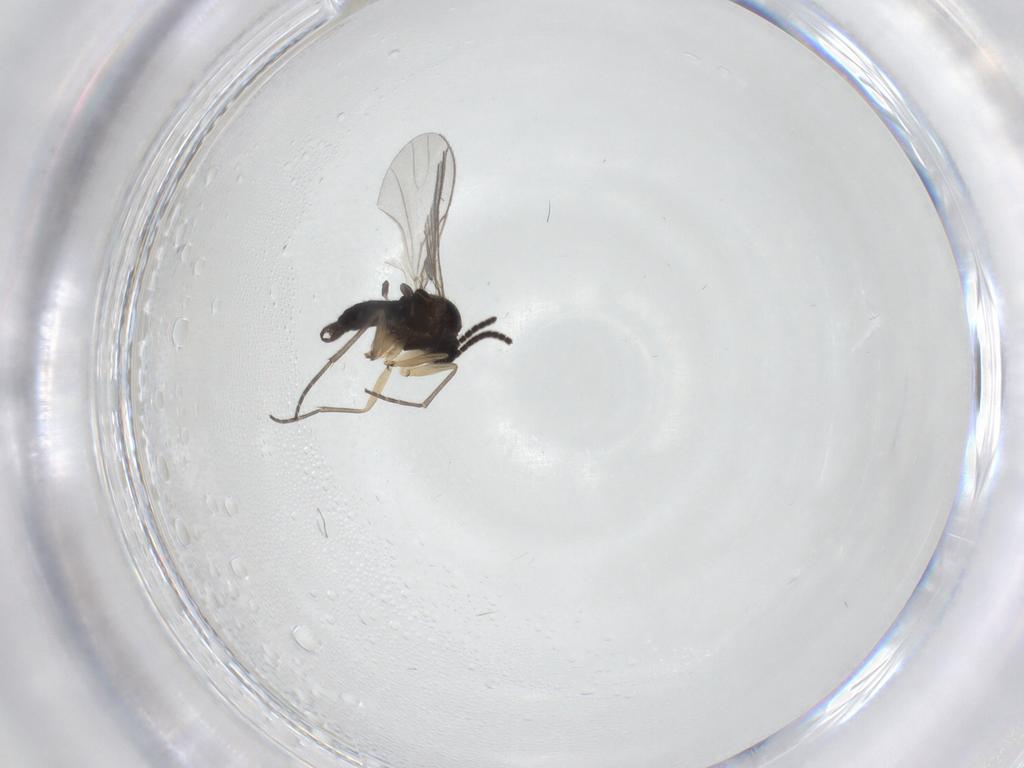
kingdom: Animalia
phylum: Arthropoda
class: Insecta
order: Diptera
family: Sciaridae
